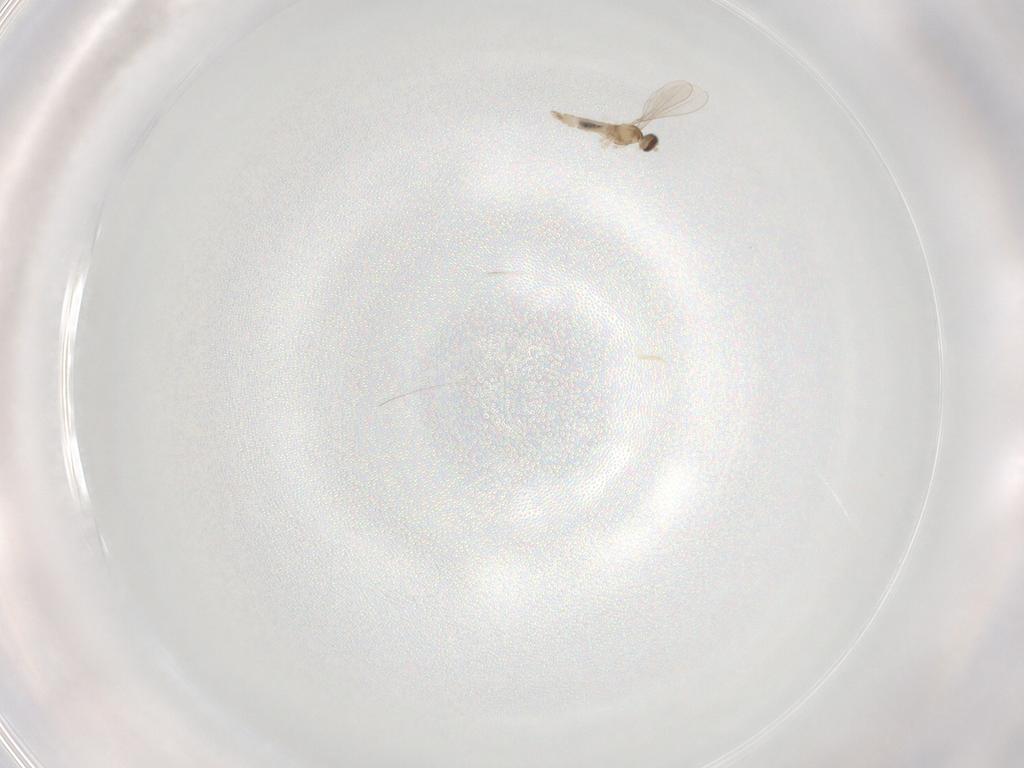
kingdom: Animalia
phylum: Arthropoda
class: Insecta
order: Diptera
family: Cecidomyiidae
